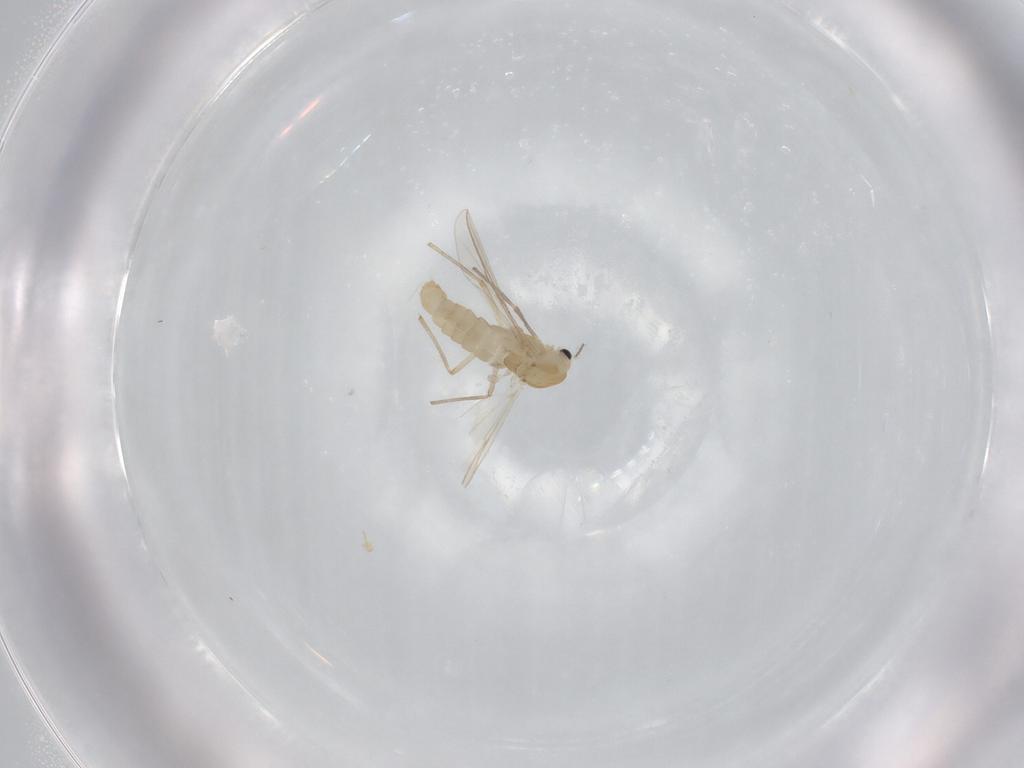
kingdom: Animalia
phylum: Arthropoda
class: Insecta
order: Diptera
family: Chironomidae
